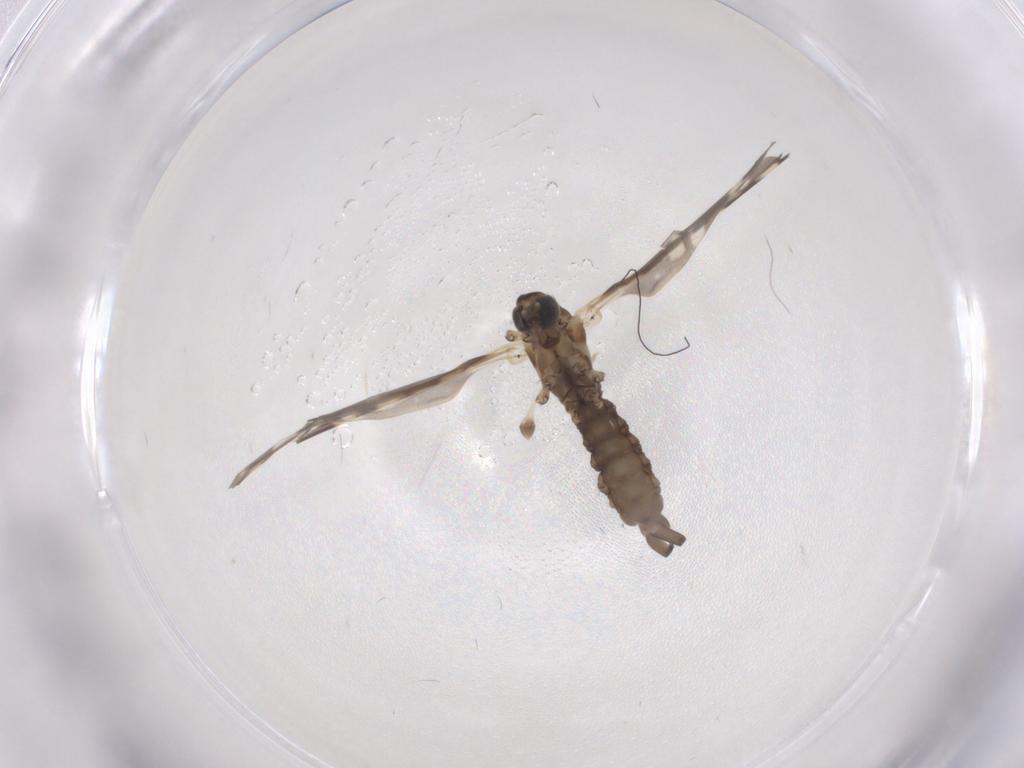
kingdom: Animalia
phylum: Arthropoda
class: Insecta
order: Diptera
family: Limoniidae
